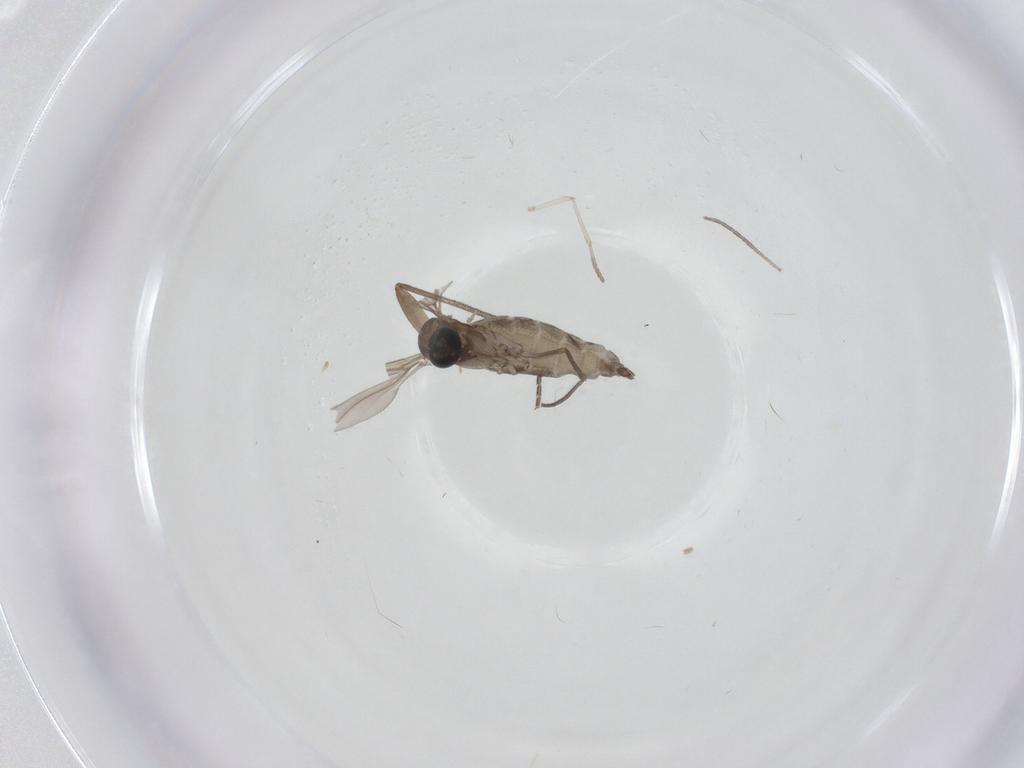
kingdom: Animalia
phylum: Arthropoda
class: Insecta
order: Diptera
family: Sciaridae
